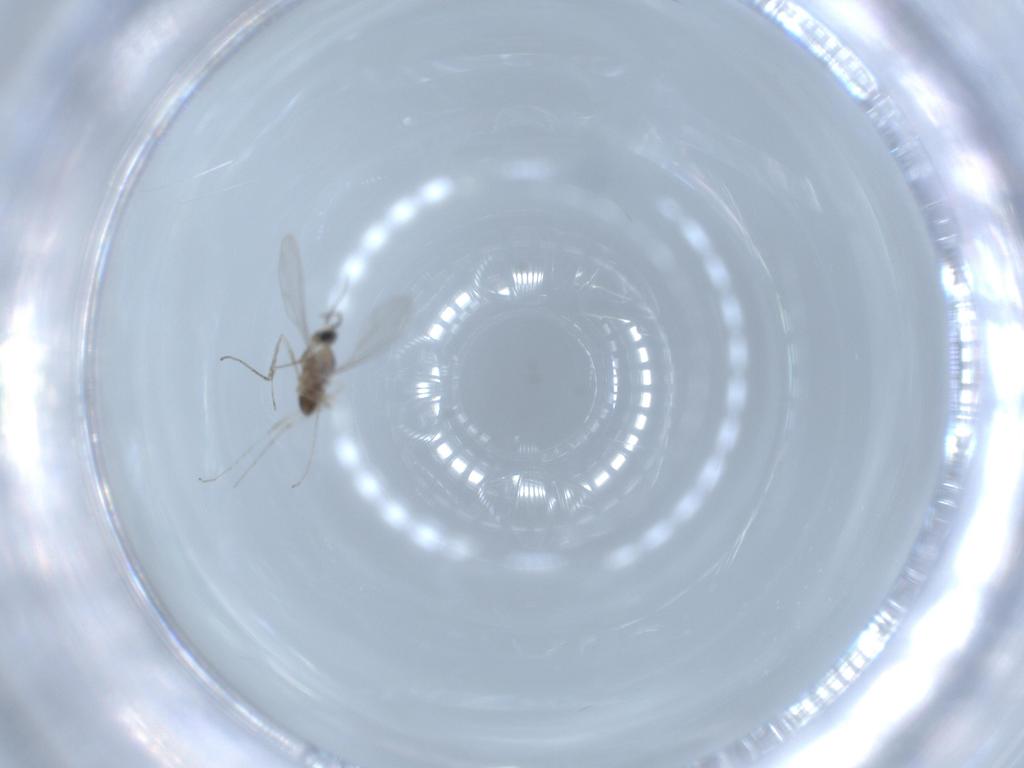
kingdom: Animalia
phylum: Arthropoda
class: Insecta
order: Diptera
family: Cecidomyiidae
